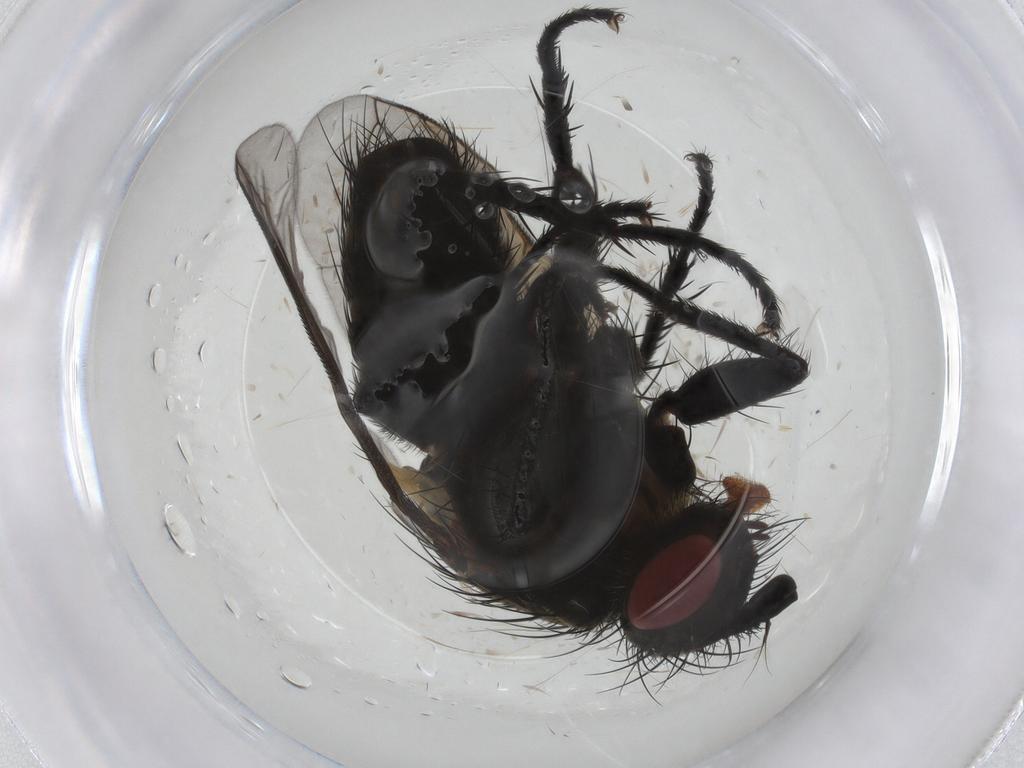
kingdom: Animalia
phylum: Arthropoda
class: Insecta
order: Diptera
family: Tachinidae
